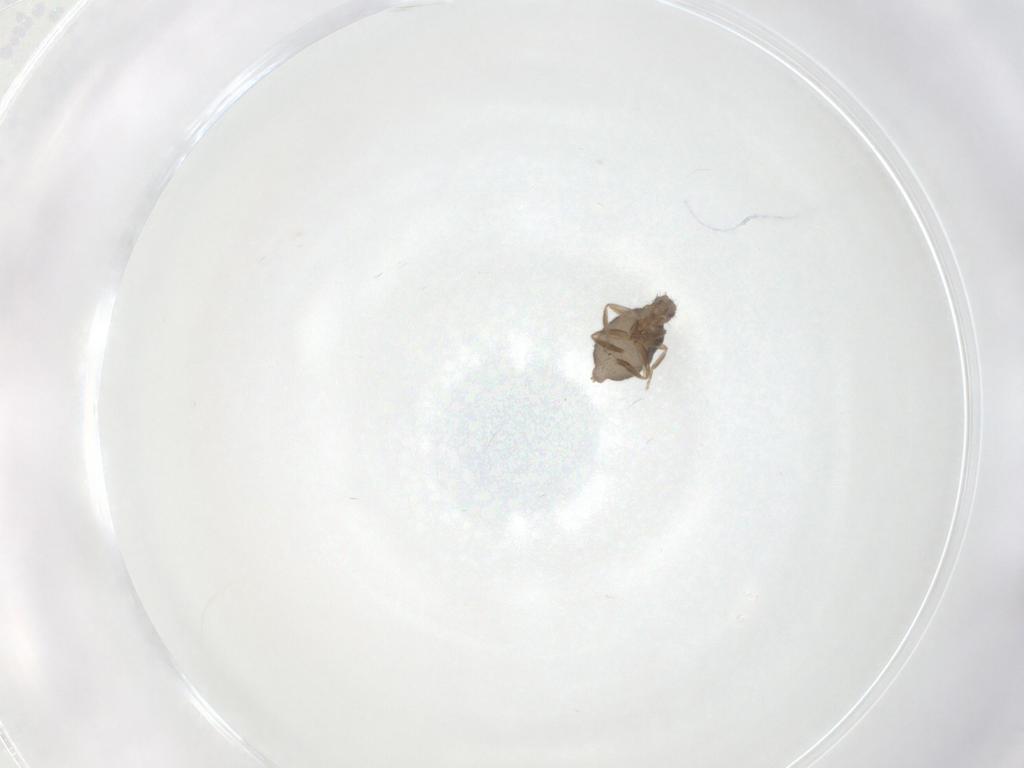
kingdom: Animalia
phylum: Arthropoda
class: Insecta
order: Diptera
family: Phoridae
